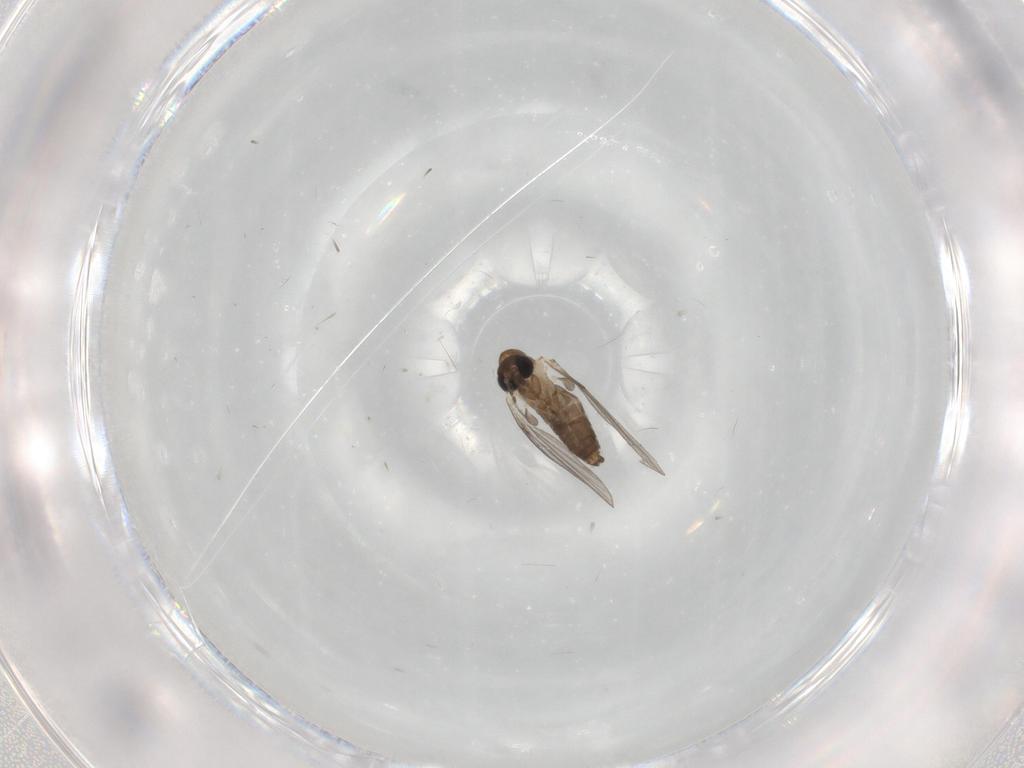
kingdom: Animalia
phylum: Arthropoda
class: Insecta
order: Diptera
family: Psychodidae
